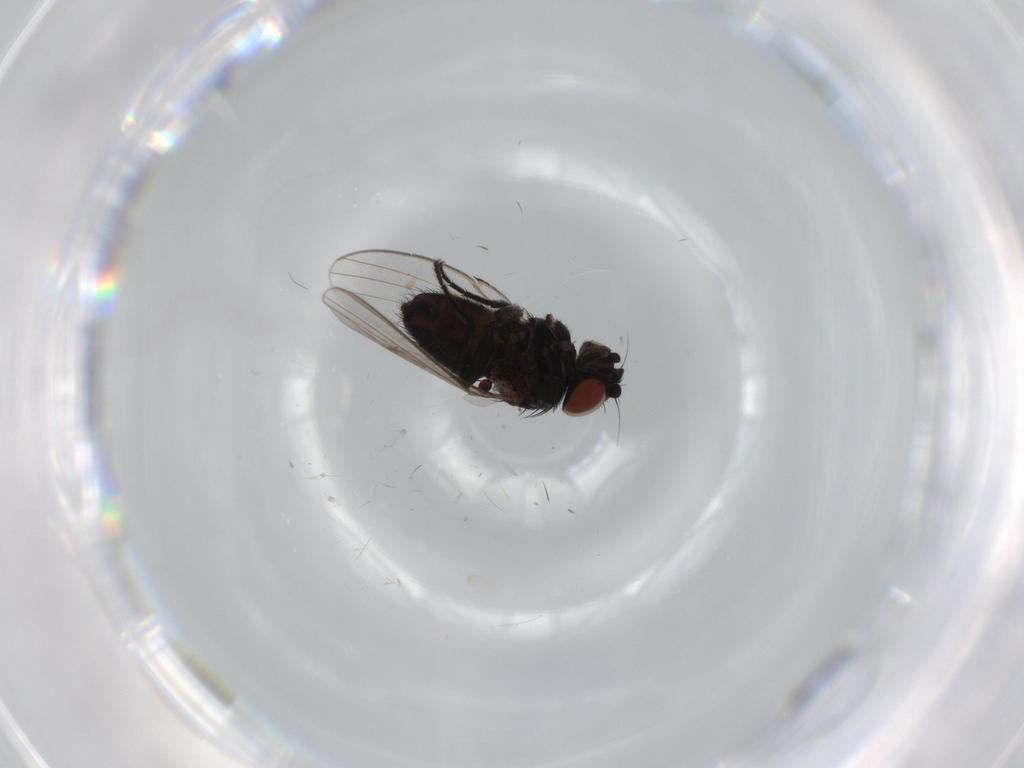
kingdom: Animalia
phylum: Arthropoda
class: Insecta
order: Diptera
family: Milichiidae
